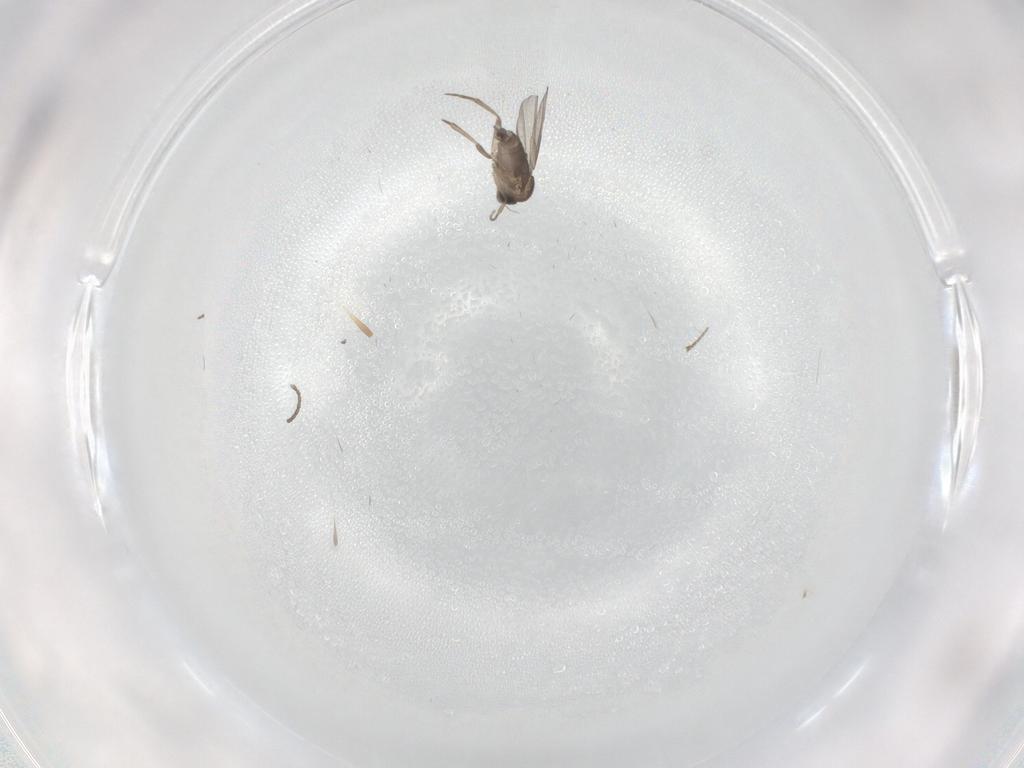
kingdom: Animalia
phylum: Arthropoda
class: Insecta
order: Diptera
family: Phoridae
